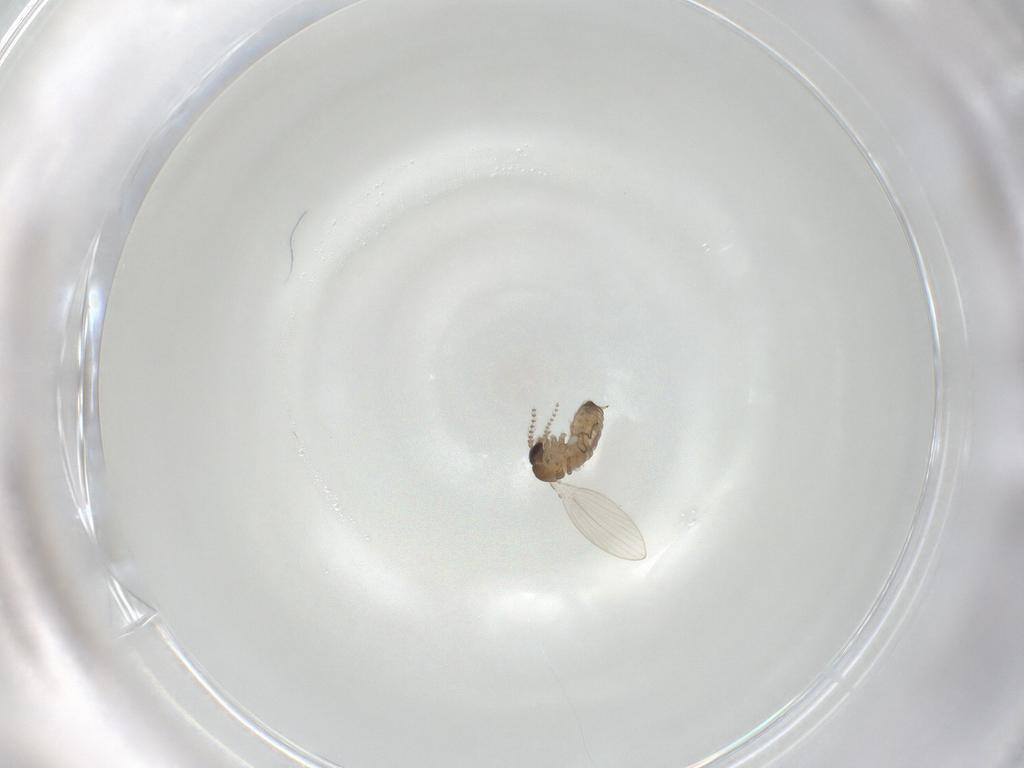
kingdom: Animalia
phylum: Arthropoda
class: Insecta
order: Diptera
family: Psychodidae
